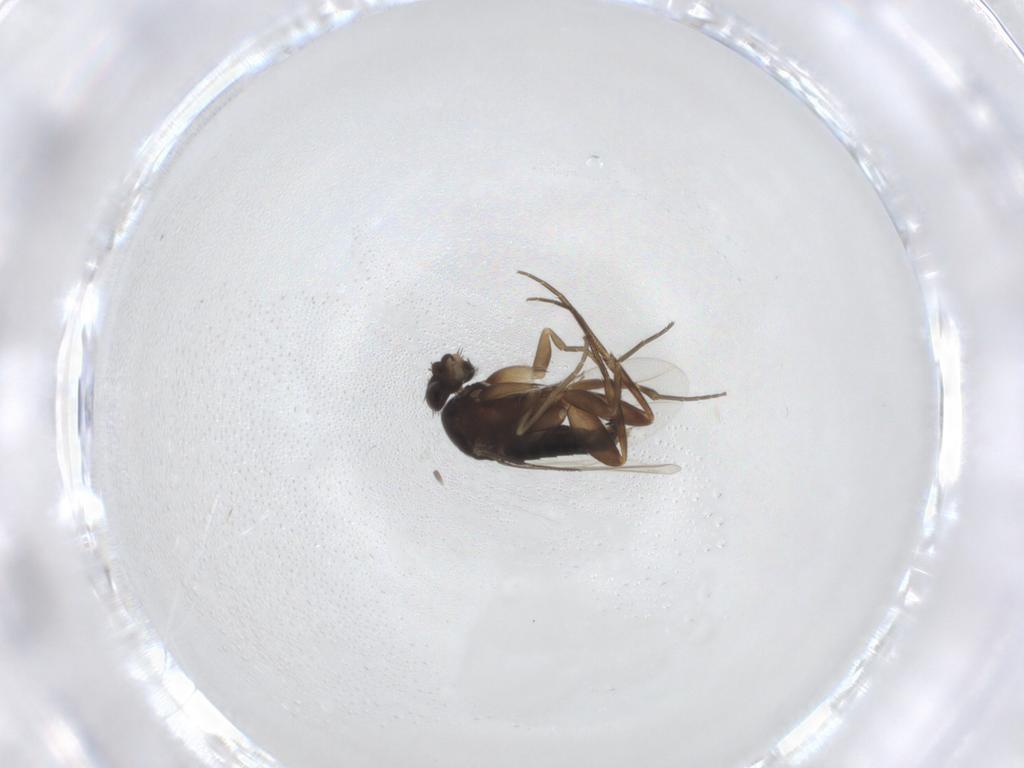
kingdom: Animalia
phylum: Arthropoda
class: Insecta
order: Diptera
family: Phoridae
